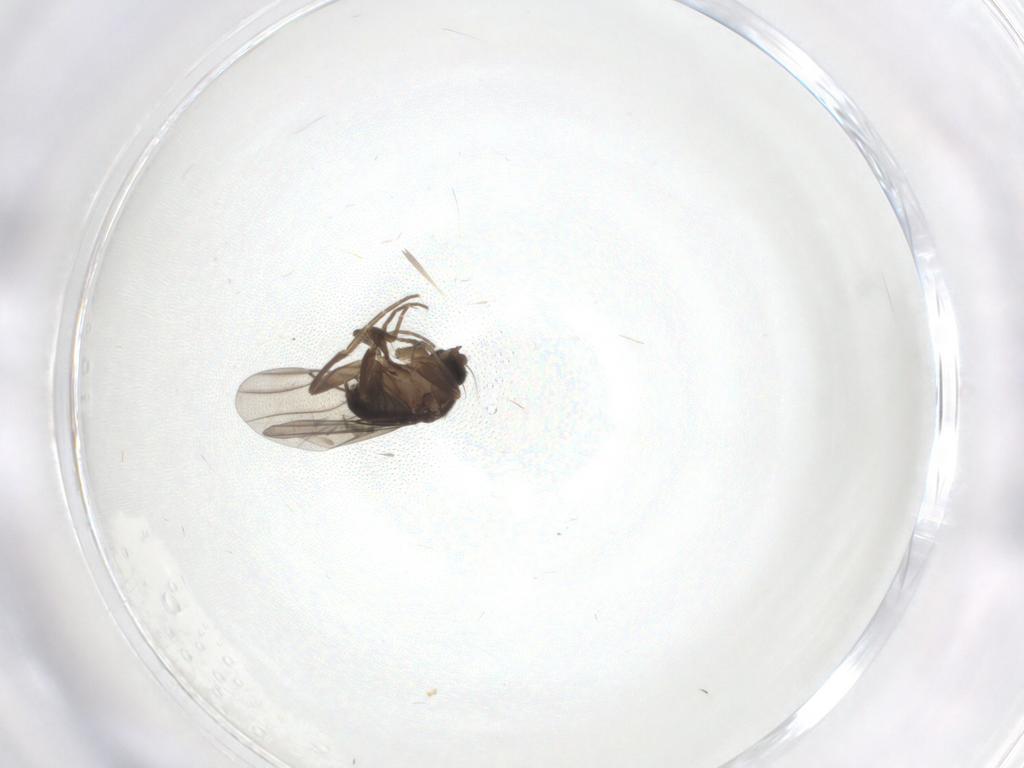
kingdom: Animalia
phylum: Arthropoda
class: Insecta
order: Diptera
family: Phoridae
